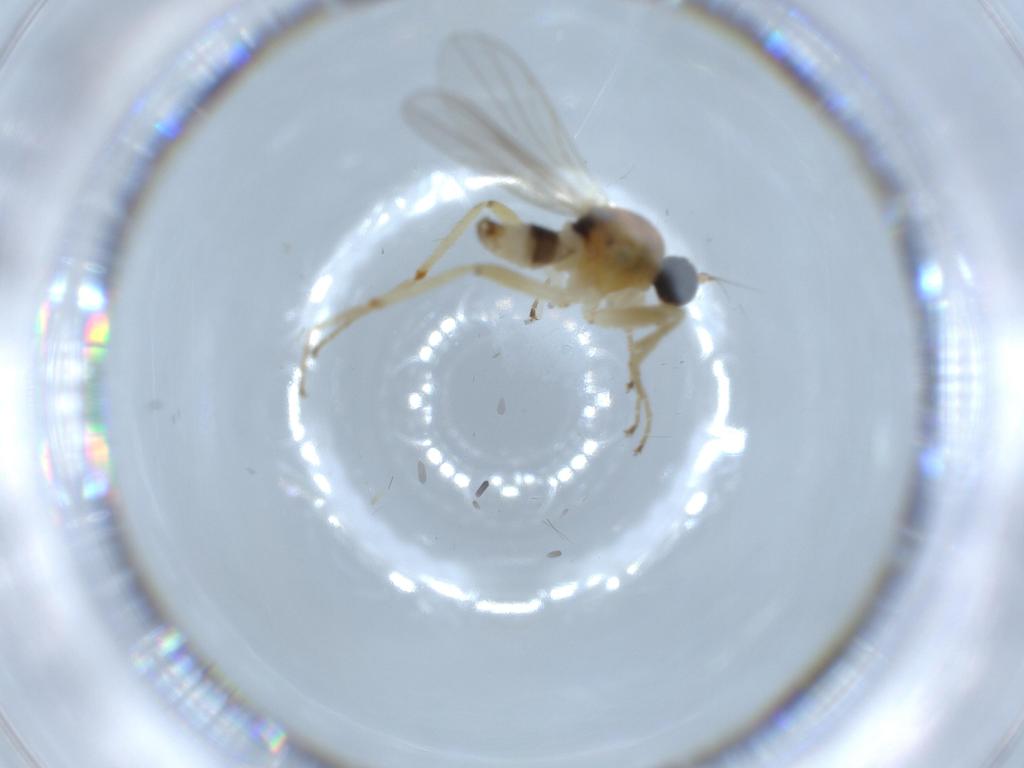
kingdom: Animalia
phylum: Arthropoda
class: Insecta
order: Diptera
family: Hybotidae
